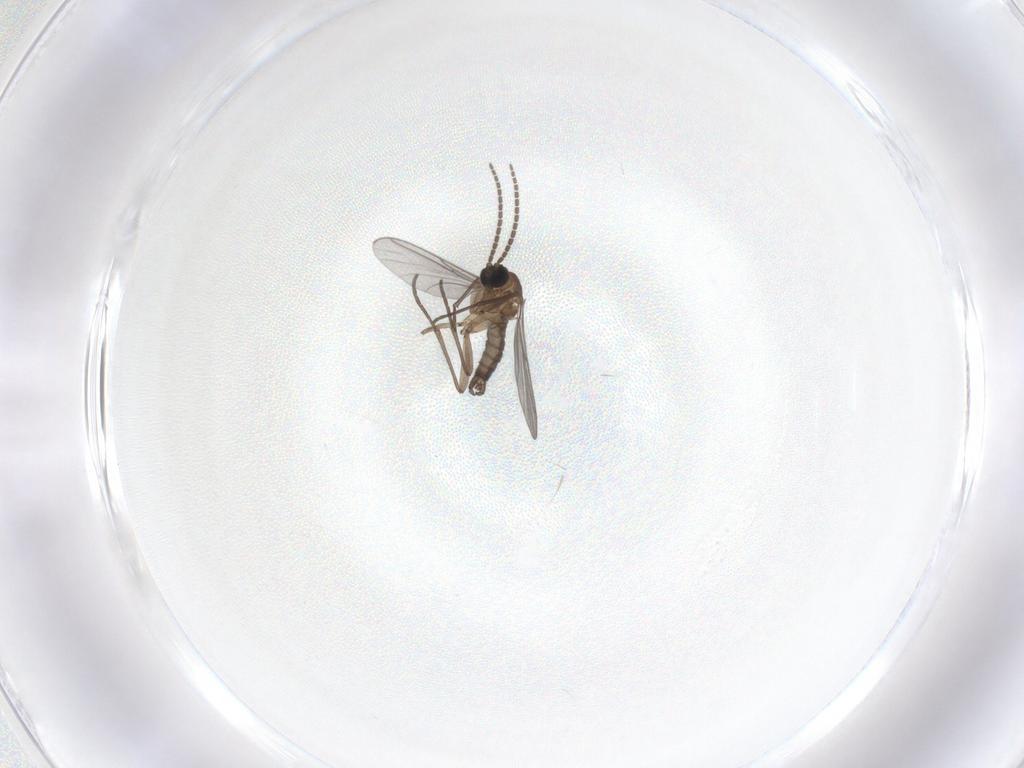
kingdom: Animalia
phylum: Arthropoda
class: Insecta
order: Diptera
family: Sciaridae
